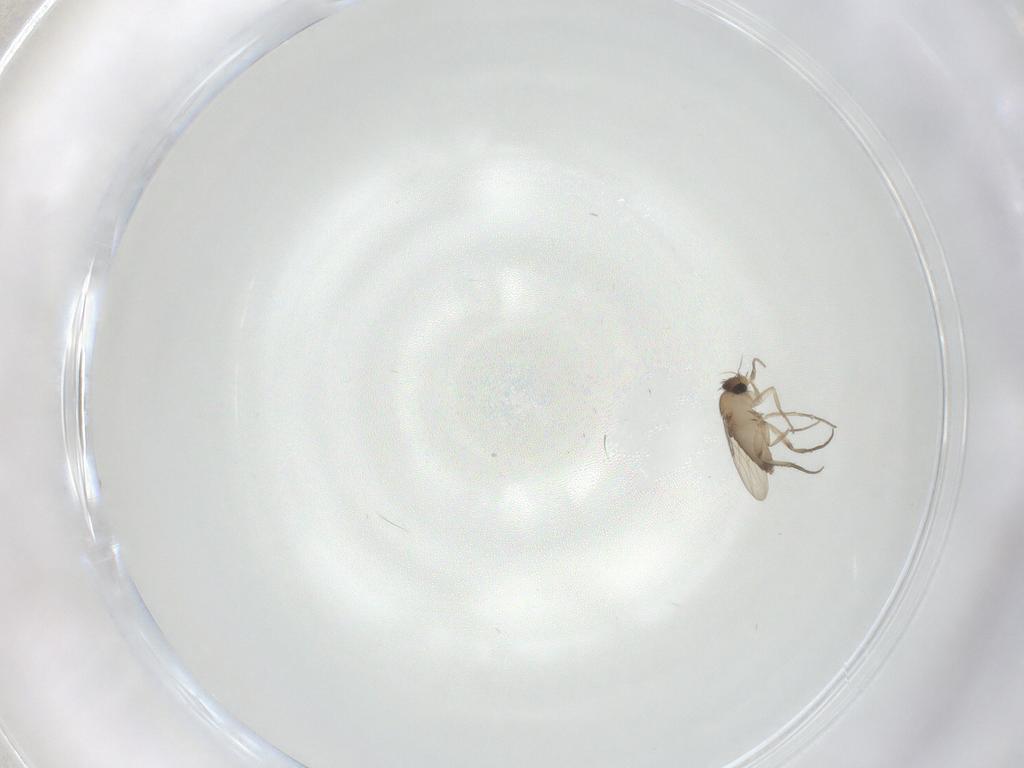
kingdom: Animalia
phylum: Arthropoda
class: Insecta
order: Diptera
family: Phoridae
